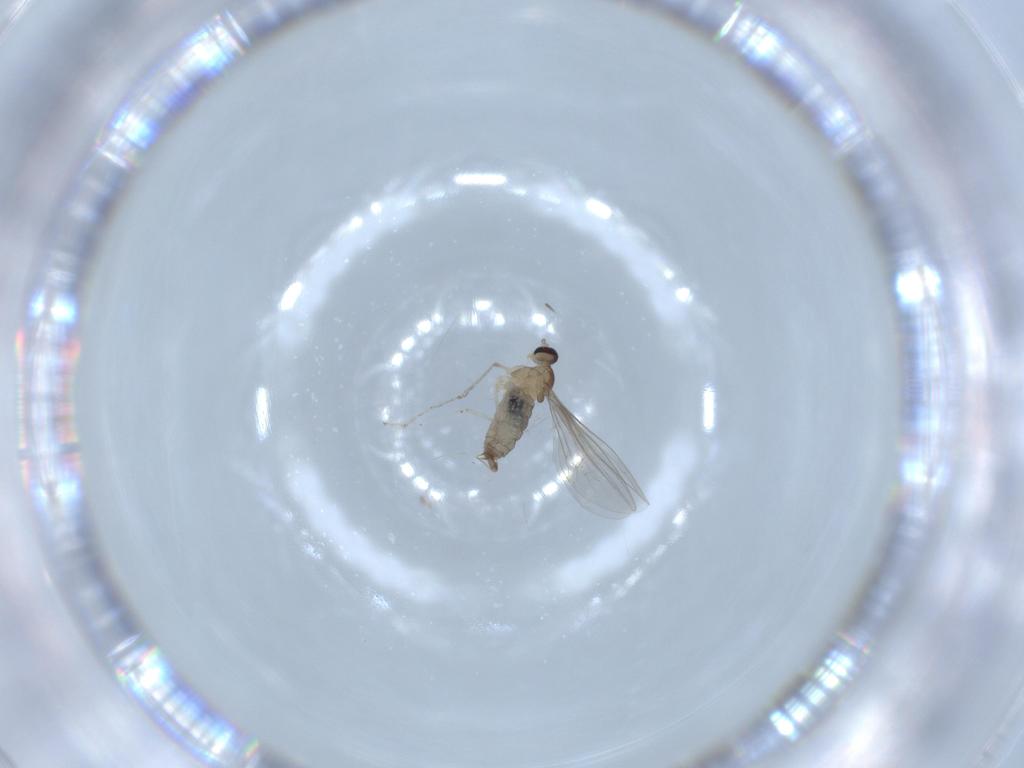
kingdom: Animalia
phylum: Arthropoda
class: Insecta
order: Diptera
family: Cecidomyiidae
